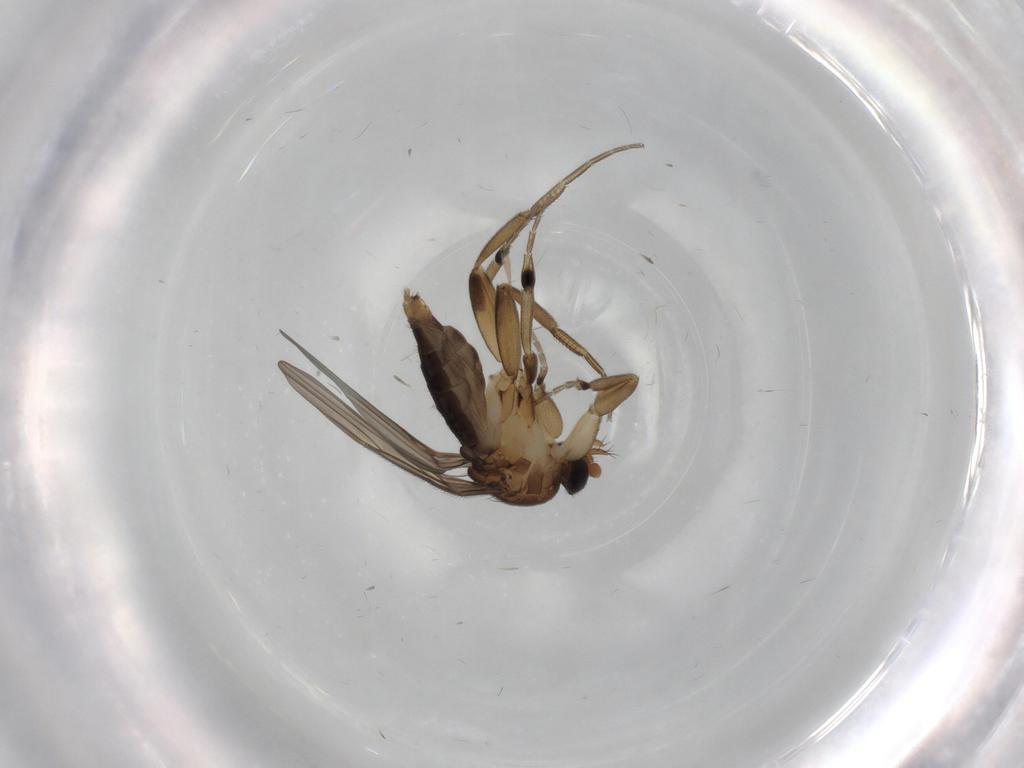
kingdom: Animalia
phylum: Arthropoda
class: Insecta
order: Diptera
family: Phoridae
